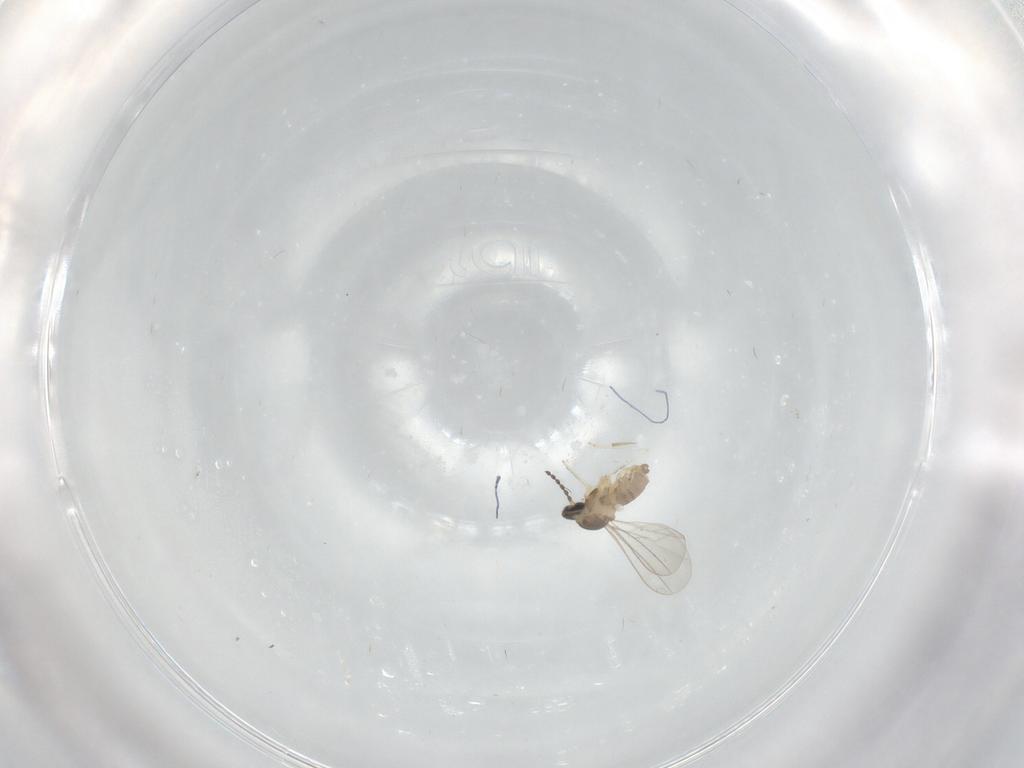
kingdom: Animalia
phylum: Arthropoda
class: Insecta
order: Diptera
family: Cecidomyiidae
